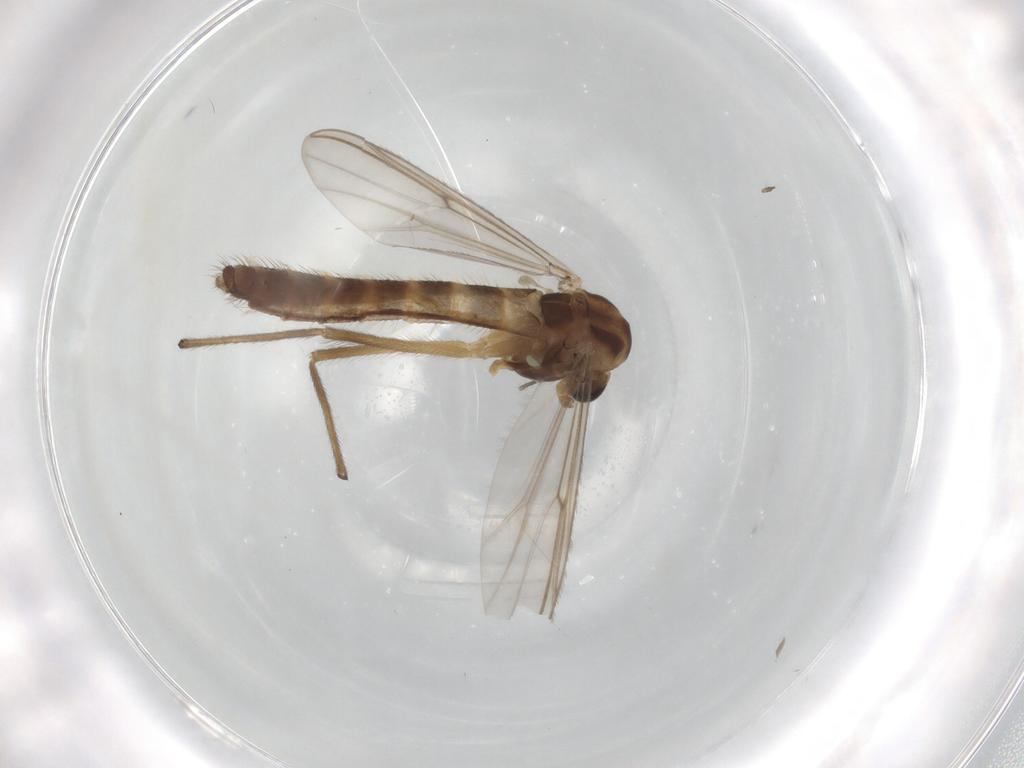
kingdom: Animalia
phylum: Arthropoda
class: Insecta
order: Diptera
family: Chironomidae
